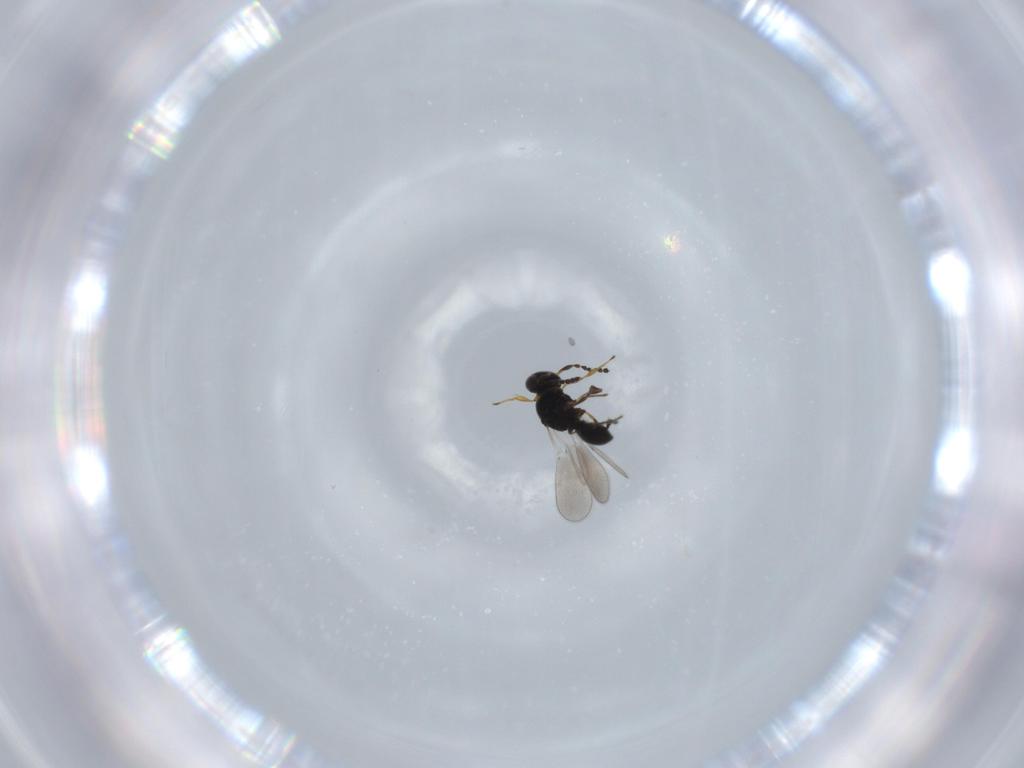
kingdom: Animalia
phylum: Arthropoda
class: Insecta
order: Hymenoptera
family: Platygastridae
